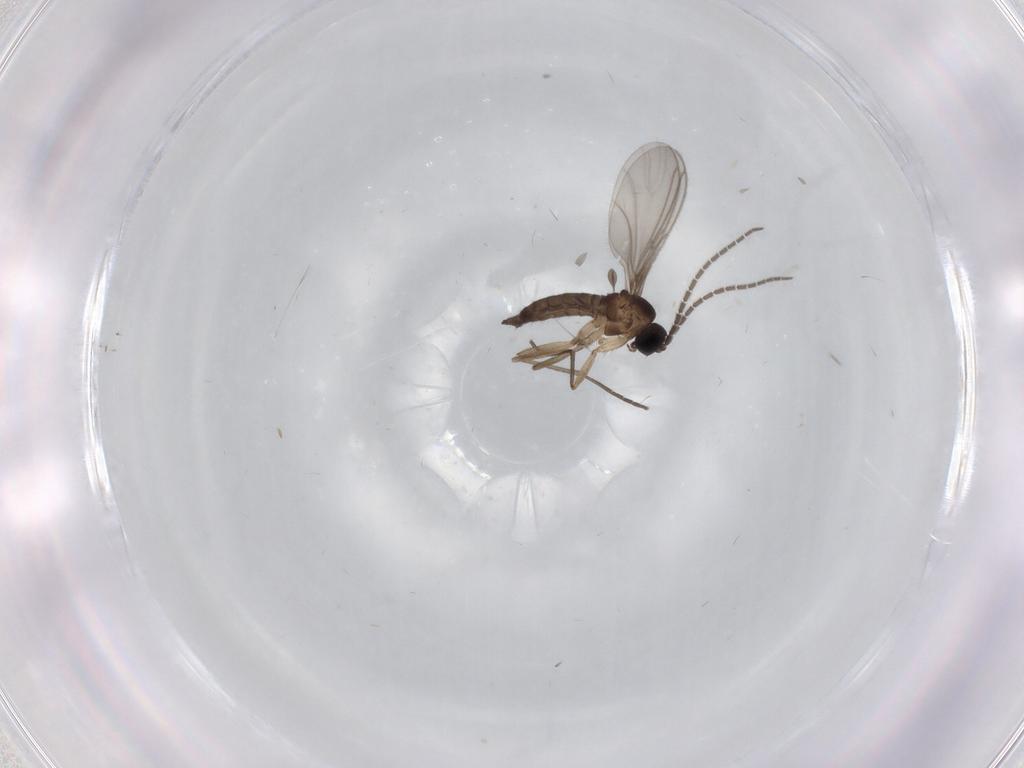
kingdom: Animalia
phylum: Arthropoda
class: Insecta
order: Diptera
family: Sciaridae
